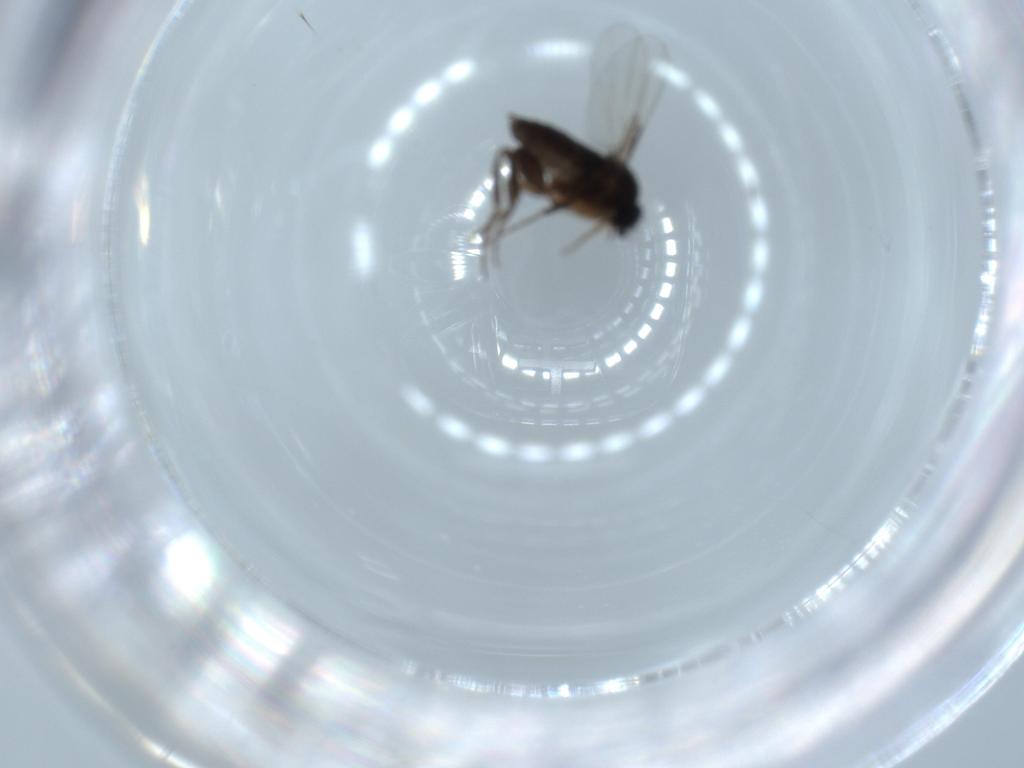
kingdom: Animalia
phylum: Arthropoda
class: Insecta
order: Diptera
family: Phoridae
